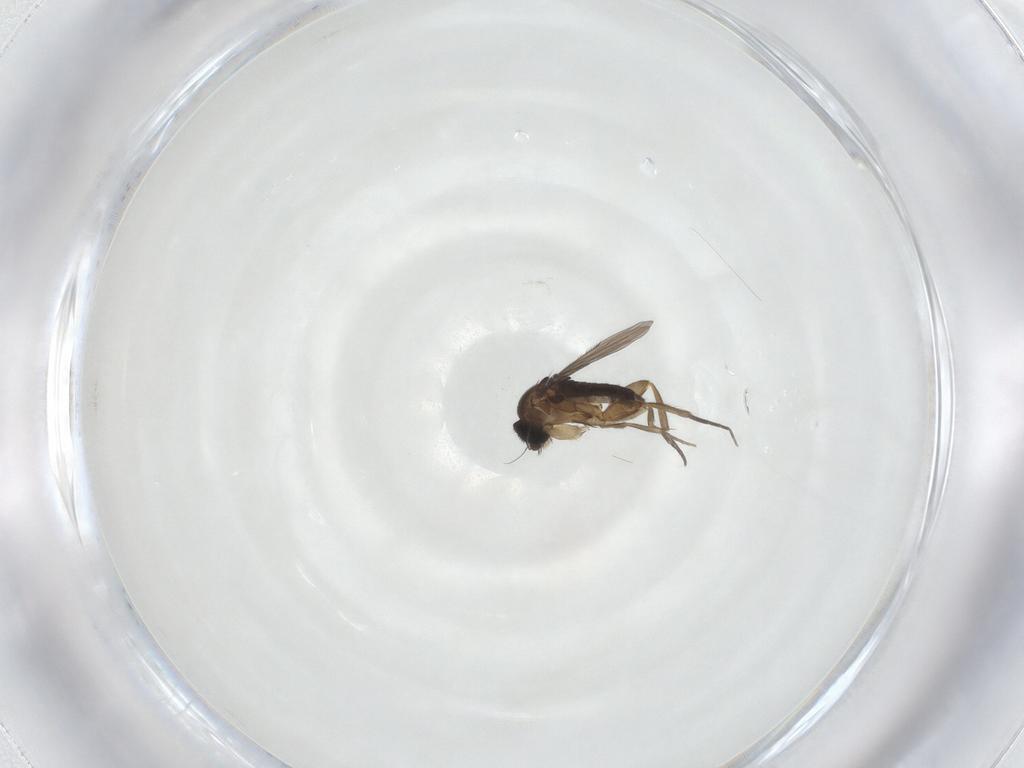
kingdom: Animalia
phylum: Arthropoda
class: Insecta
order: Diptera
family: Phoridae
